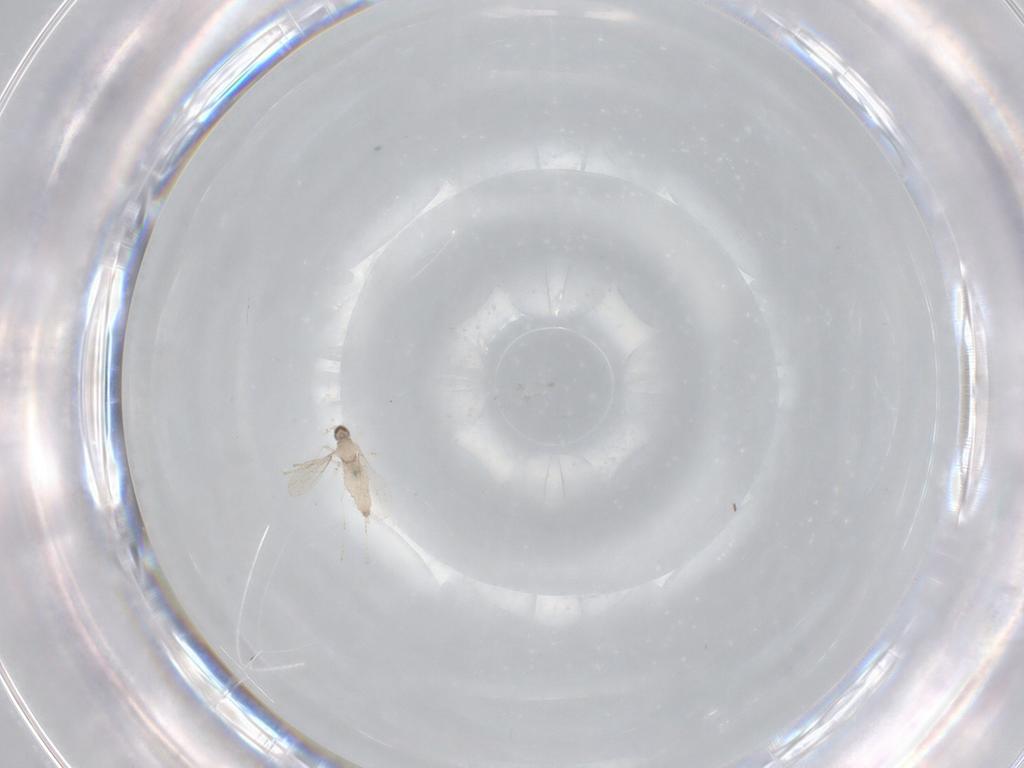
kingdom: Animalia
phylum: Arthropoda
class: Insecta
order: Diptera
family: Cecidomyiidae
